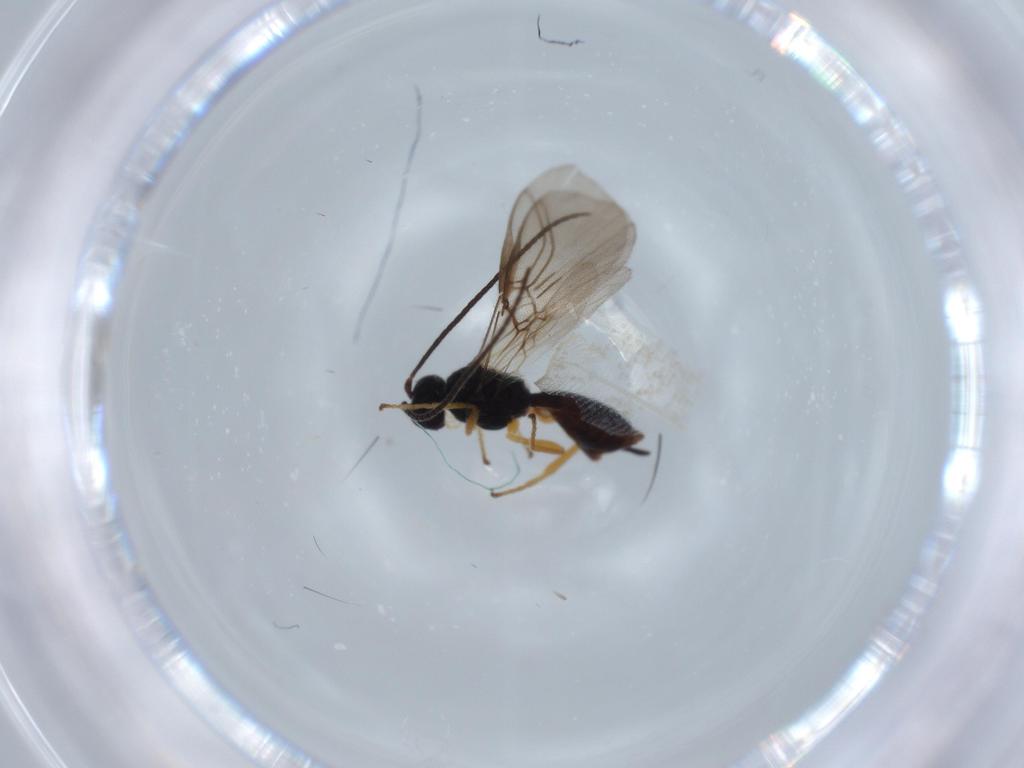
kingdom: Animalia
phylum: Arthropoda
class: Insecta
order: Hymenoptera
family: Braconidae
